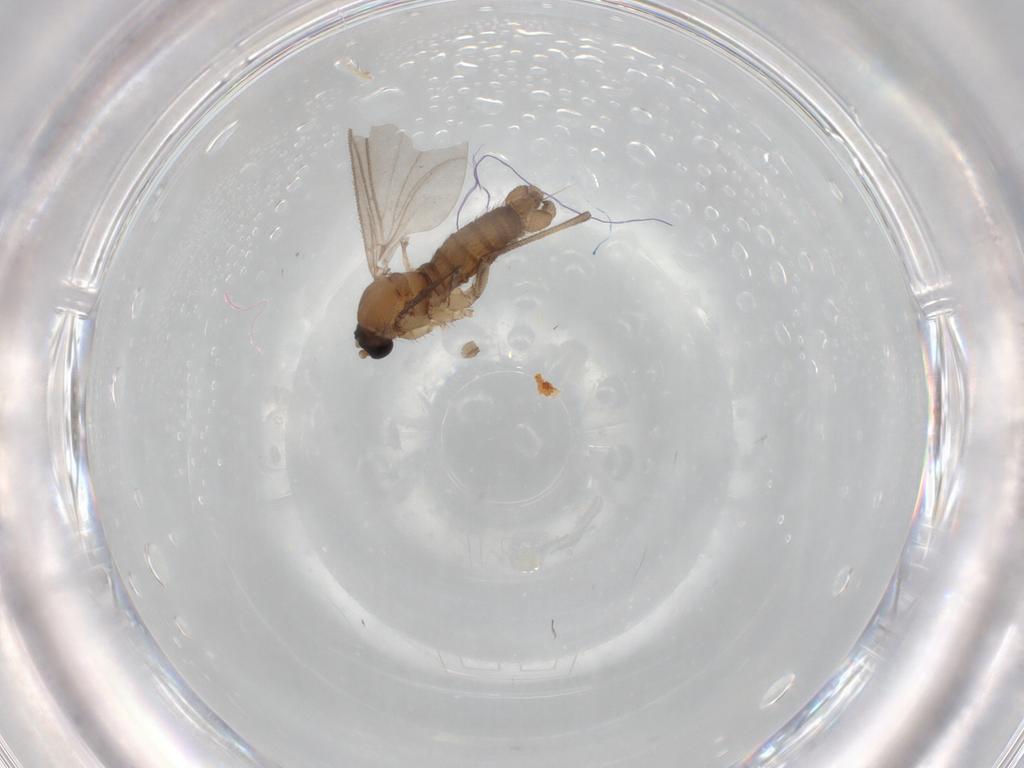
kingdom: Animalia
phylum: Arthropoda
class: Insecta
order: Diptera
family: Sciaridae
